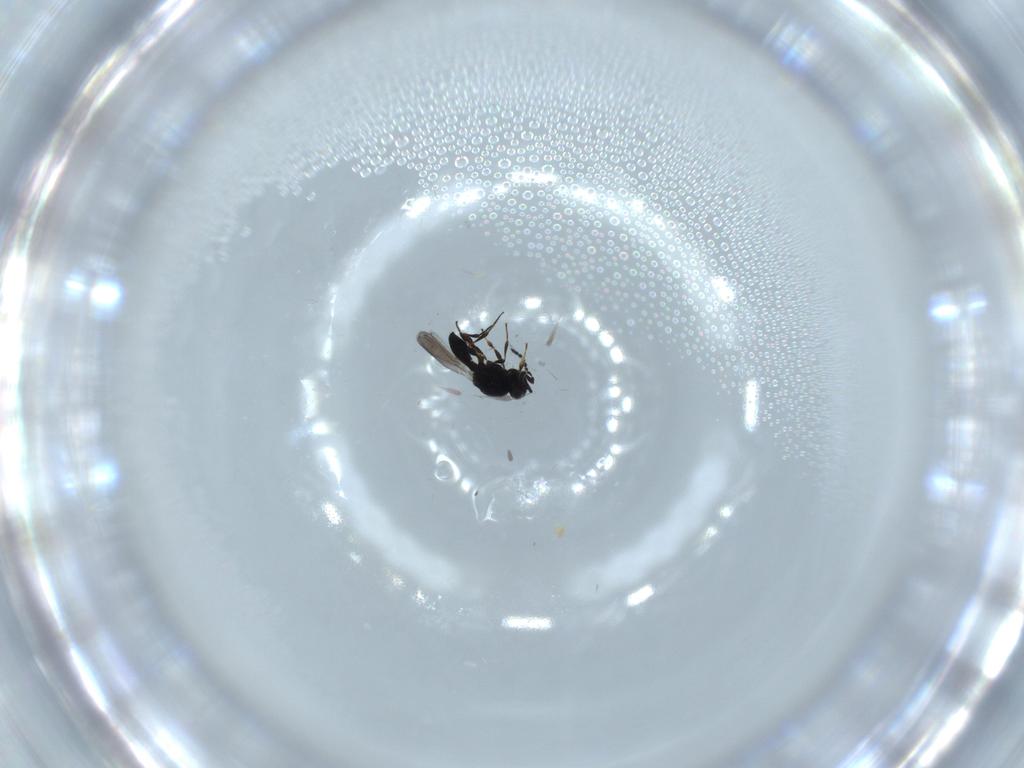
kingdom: Animalia
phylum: Arthropoda
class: Insecta
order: Hymenoptera
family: Platygastridae
